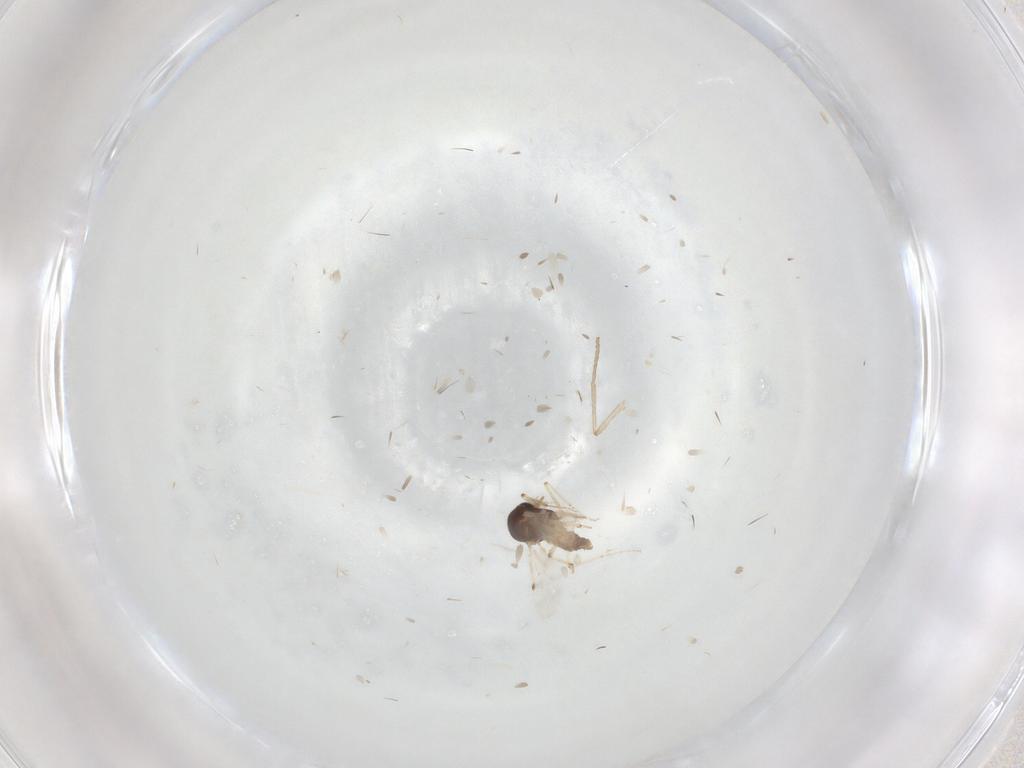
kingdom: Animalia
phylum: Arthropoda
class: Insecta
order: Diptera
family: Psychodidae
